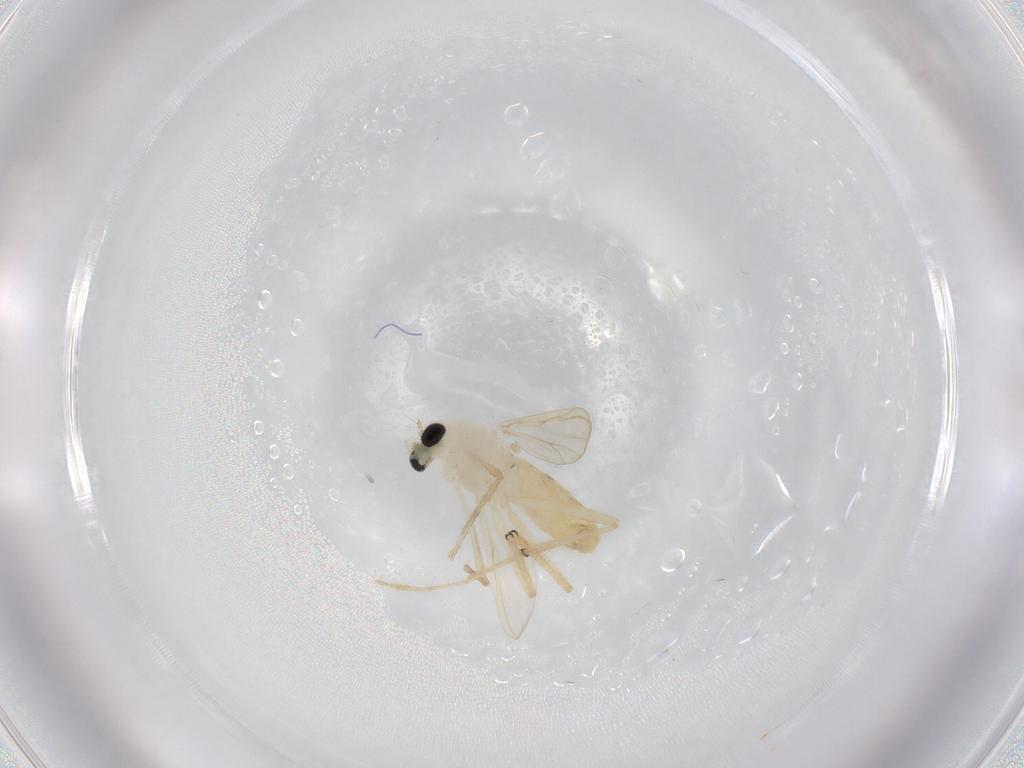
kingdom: Animalia
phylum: Arthropoda
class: Insecta
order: Diptera
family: Chironomidae
